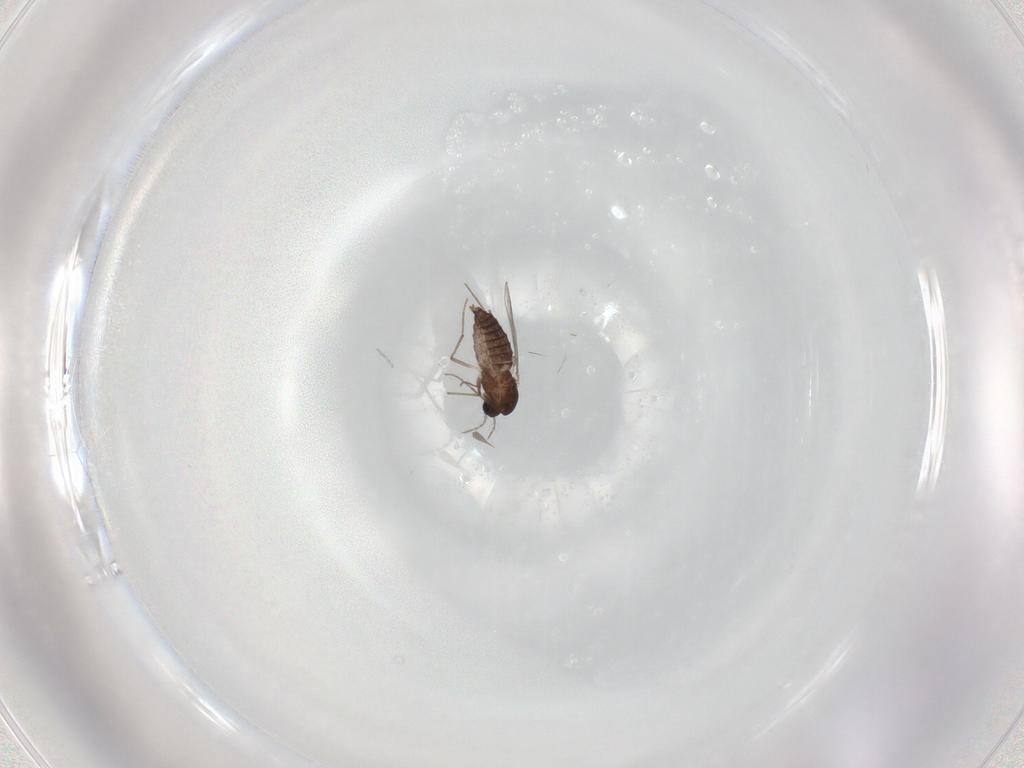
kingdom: Animalia
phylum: Arthropoda
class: Insecta
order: Diptera
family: Chironomidae
